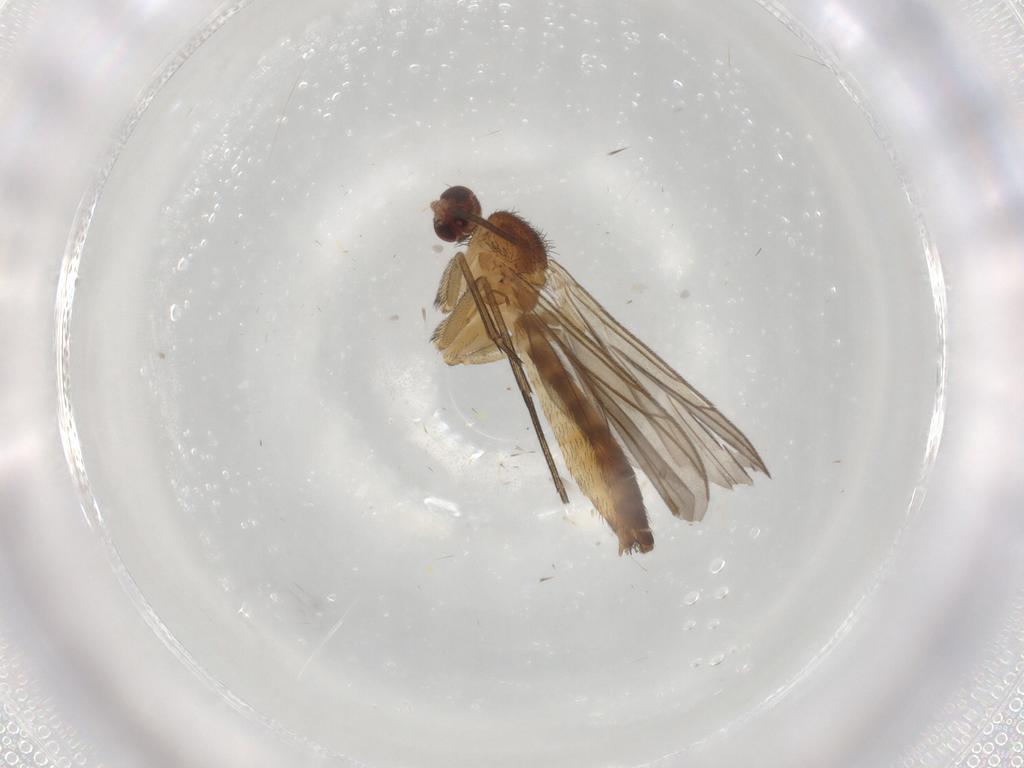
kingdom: Animalia
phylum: Arthropoda
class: Insecta
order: Diptera
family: Keroplatidae
